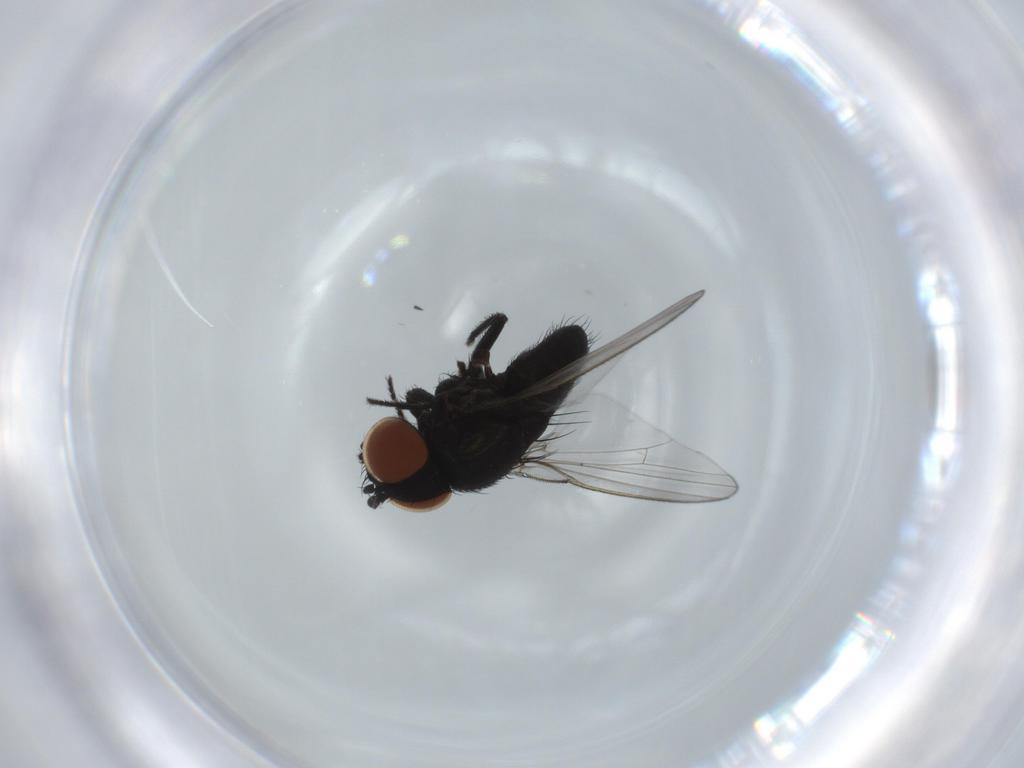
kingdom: Animalia
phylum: Arthropoda
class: Insecta
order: Diptera
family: Milichiidae
